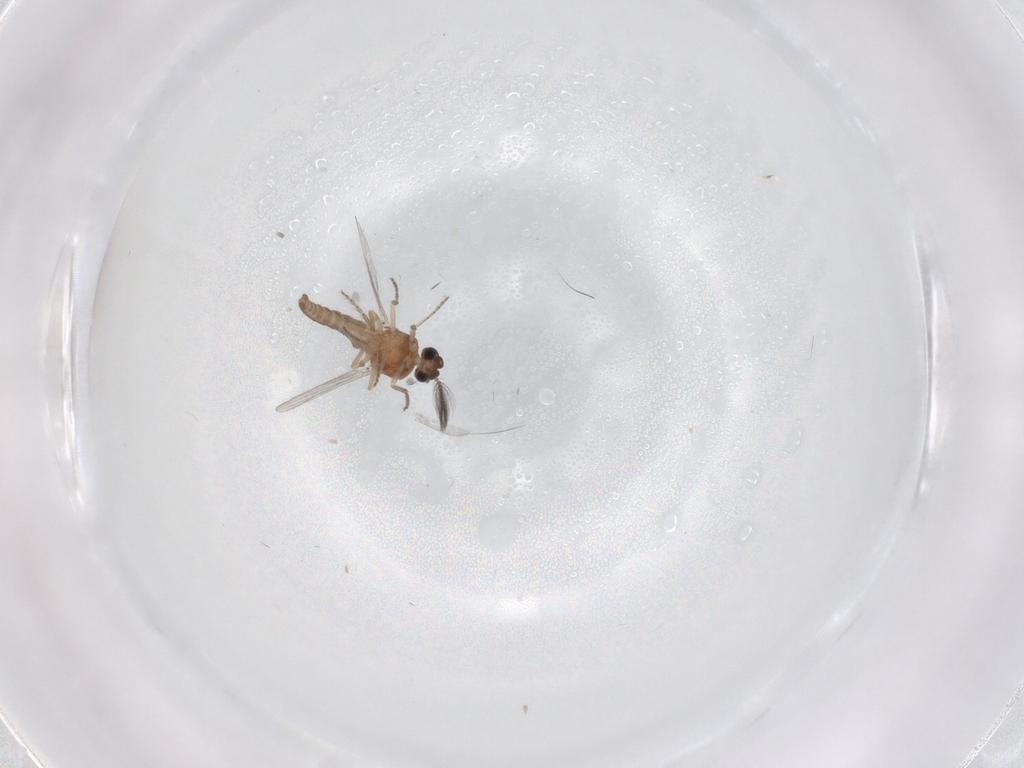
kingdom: Animalia
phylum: Arthropoda
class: Insecta
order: Diptera
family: Ceratopogonidae
